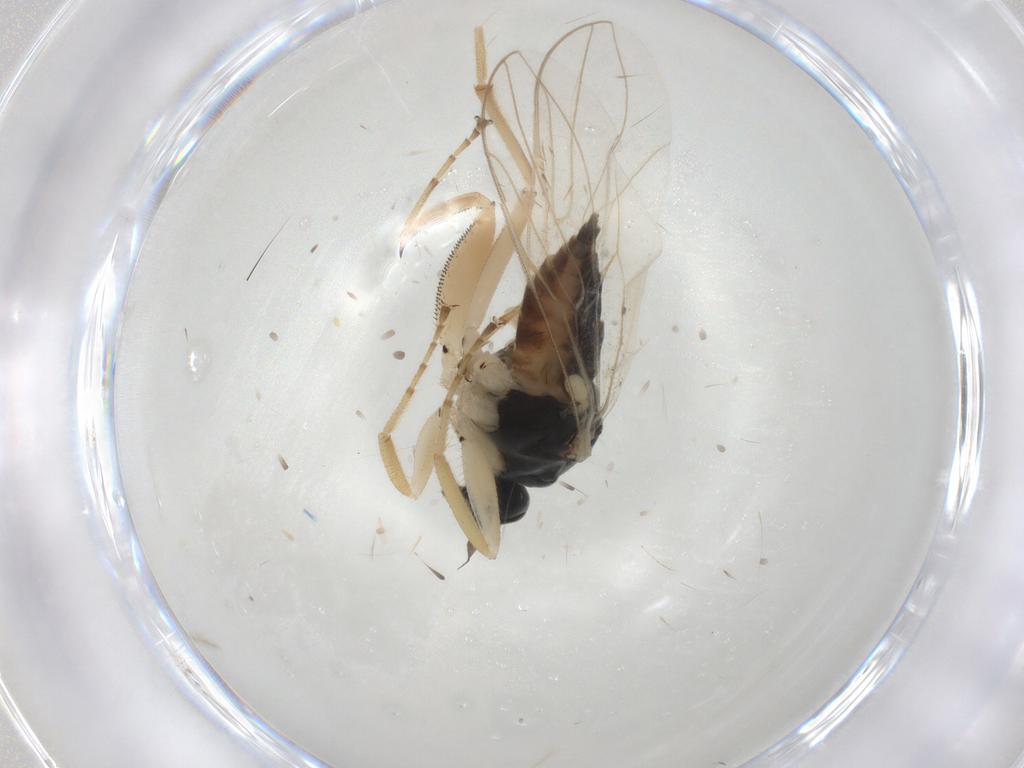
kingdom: Animalia
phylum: Arthropoda
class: Insecta
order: Diptera
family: Hybotidae
